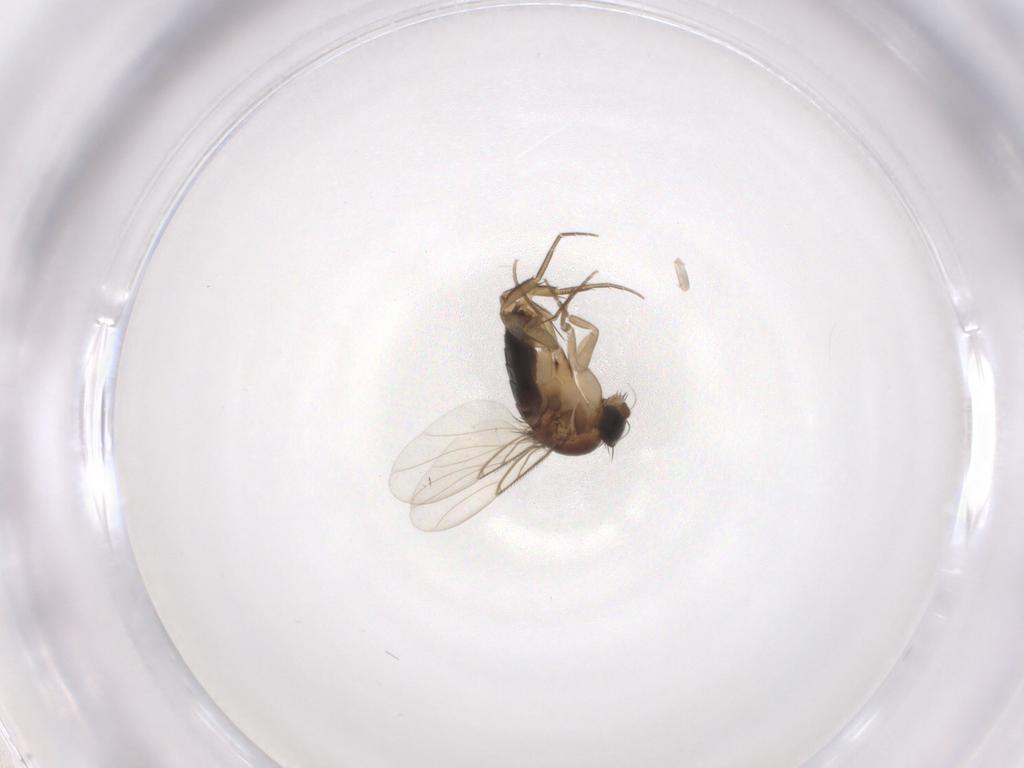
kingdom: Animalia
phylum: Arthropoda
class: Insecta
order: Diptera
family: Phoridae
